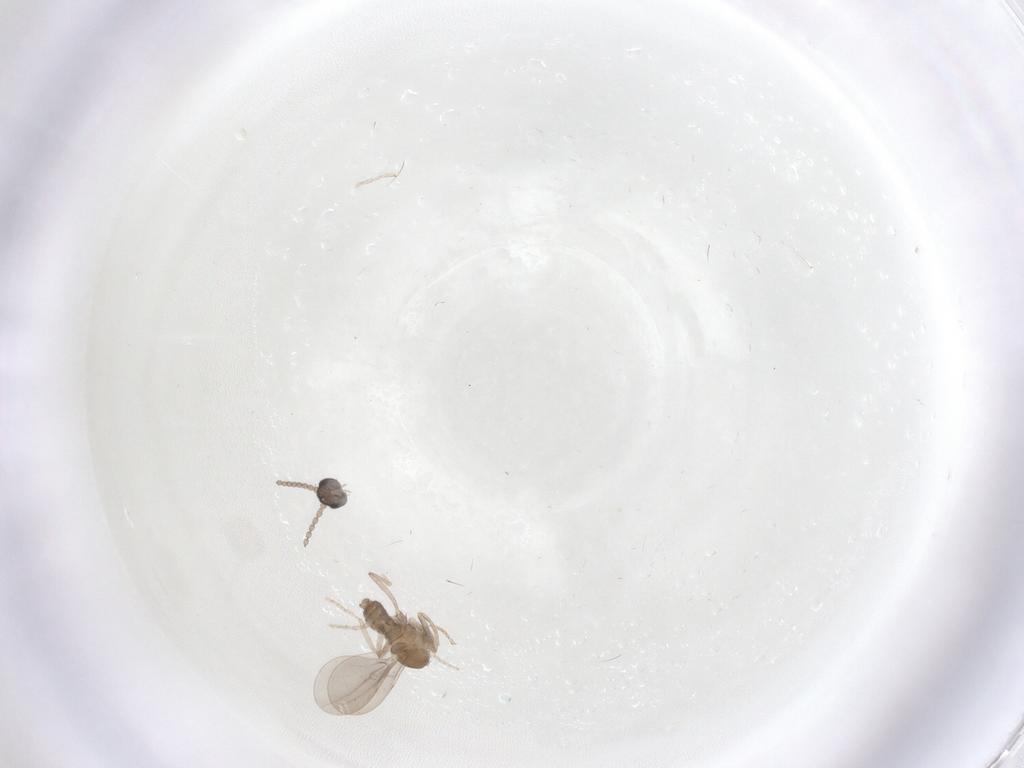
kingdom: Animalia
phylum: Arthropoda
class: Insecta
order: Diptera
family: Cecidomyiidae
